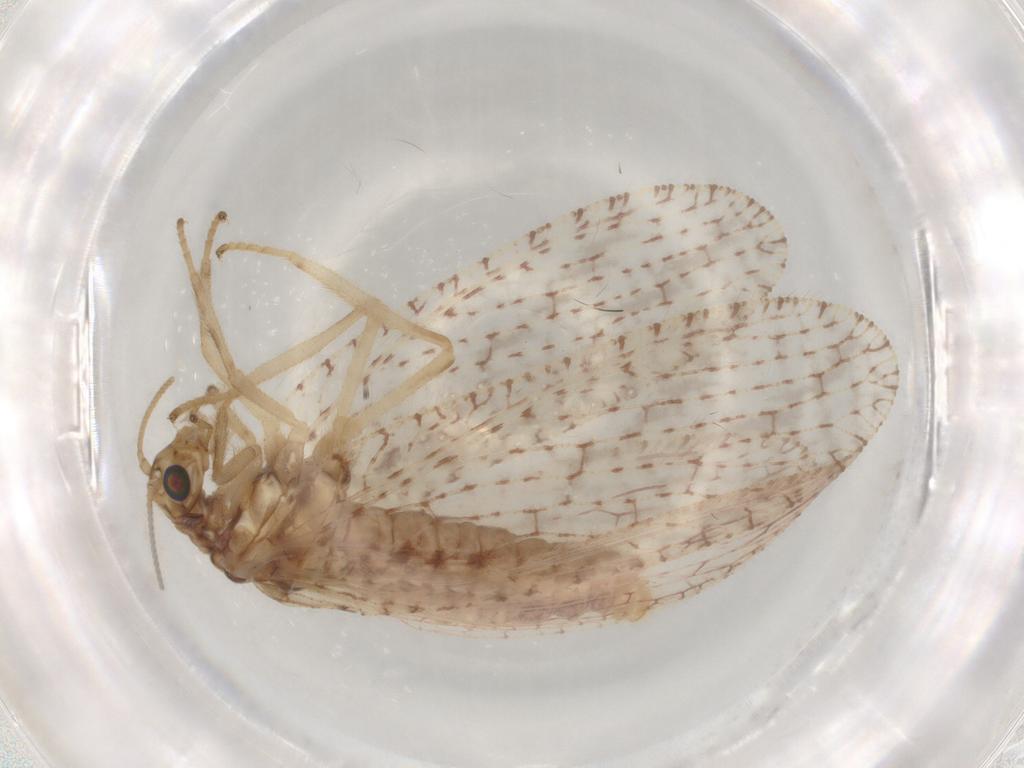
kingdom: Animalia
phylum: Arthropoda
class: Insecta
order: Neuroptera
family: Hemerobiidae
